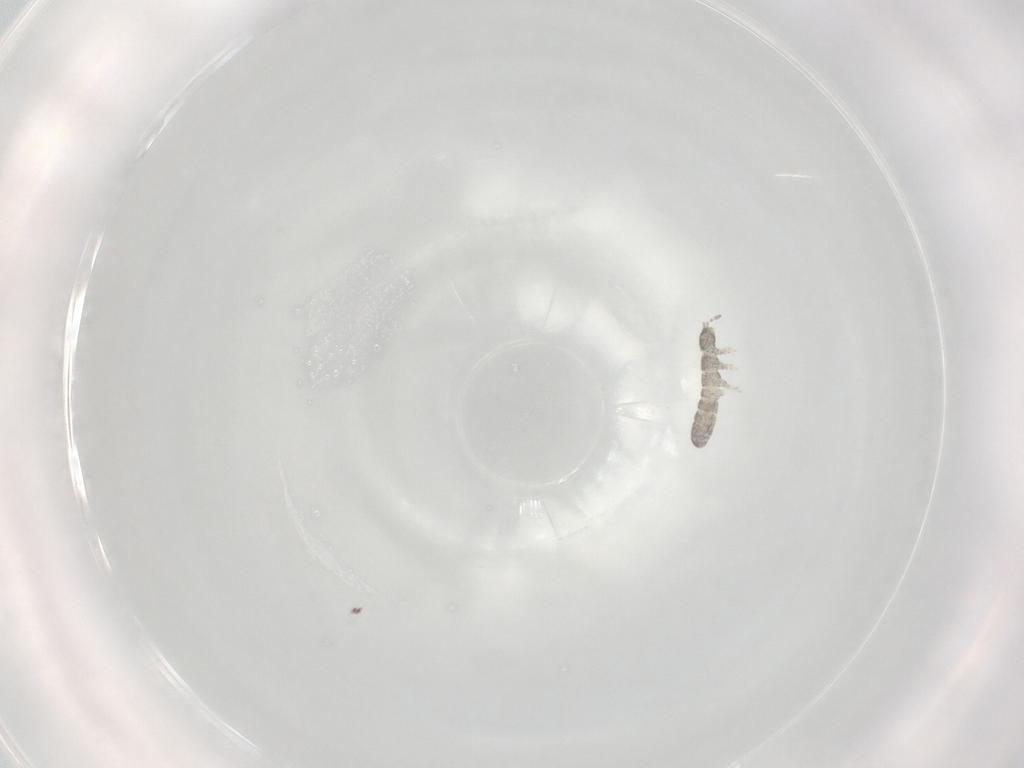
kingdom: Animalia
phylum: Arthropoda
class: Collembola
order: Entomobryomorpha
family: Isotomidae
